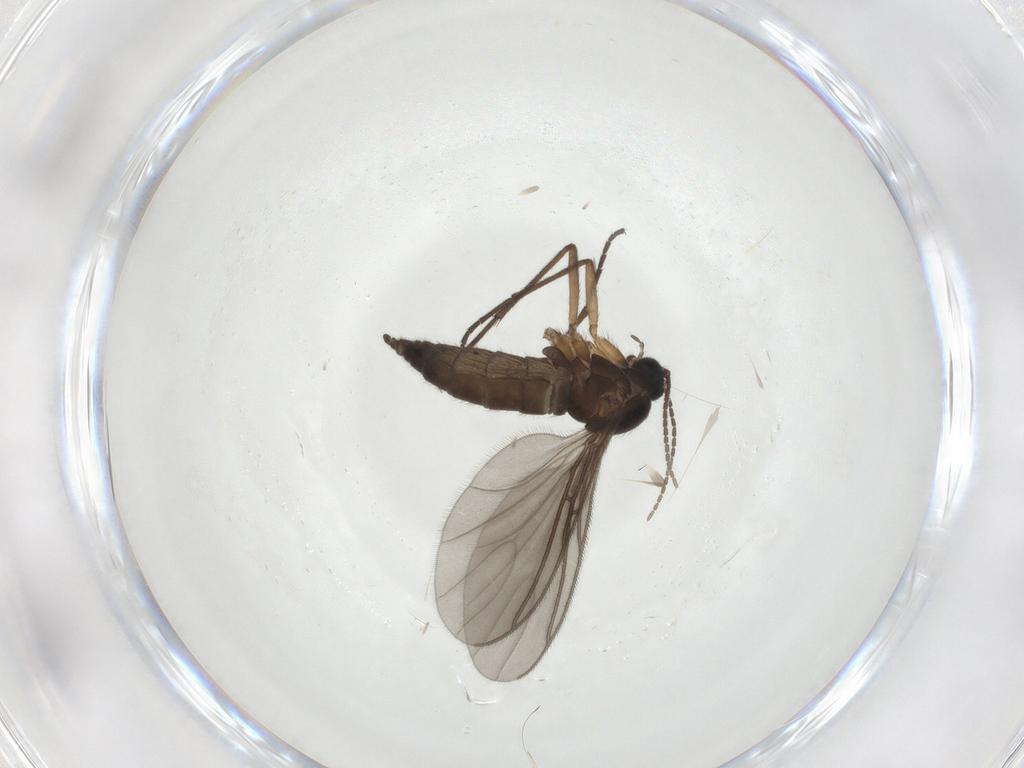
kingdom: Animalia
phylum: Arthropoda
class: Insecta
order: Diptera
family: Sciaridae
